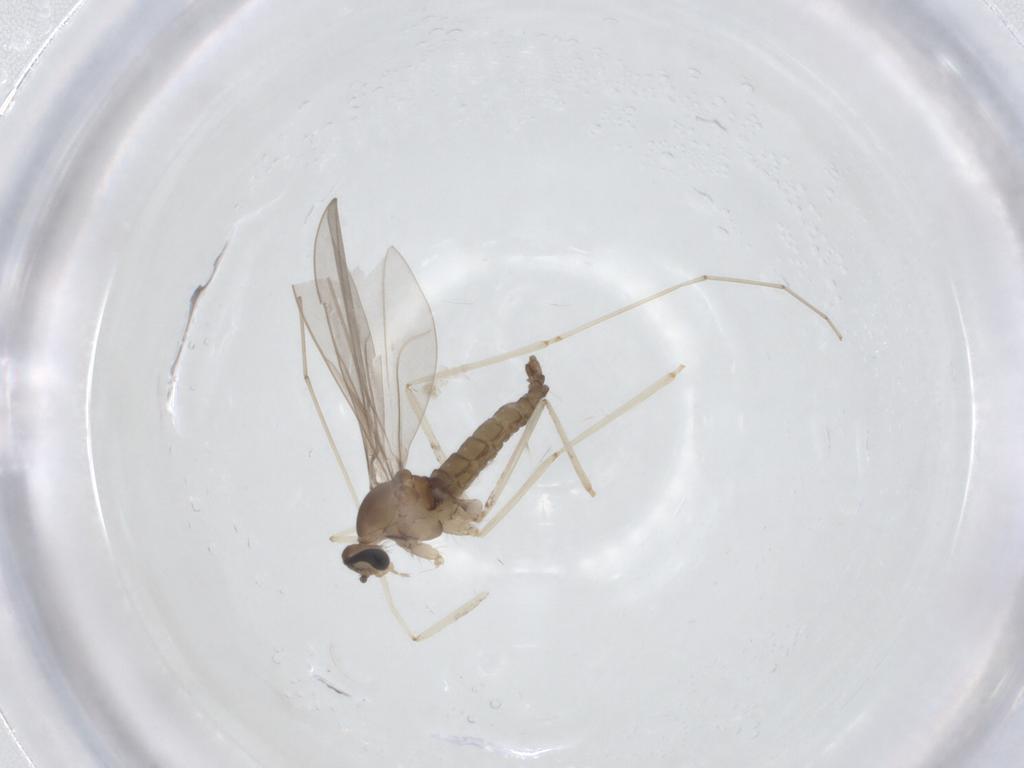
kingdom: Animalia
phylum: Arthropoda
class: Insecta
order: Diptera
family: Cecidomyiidae
